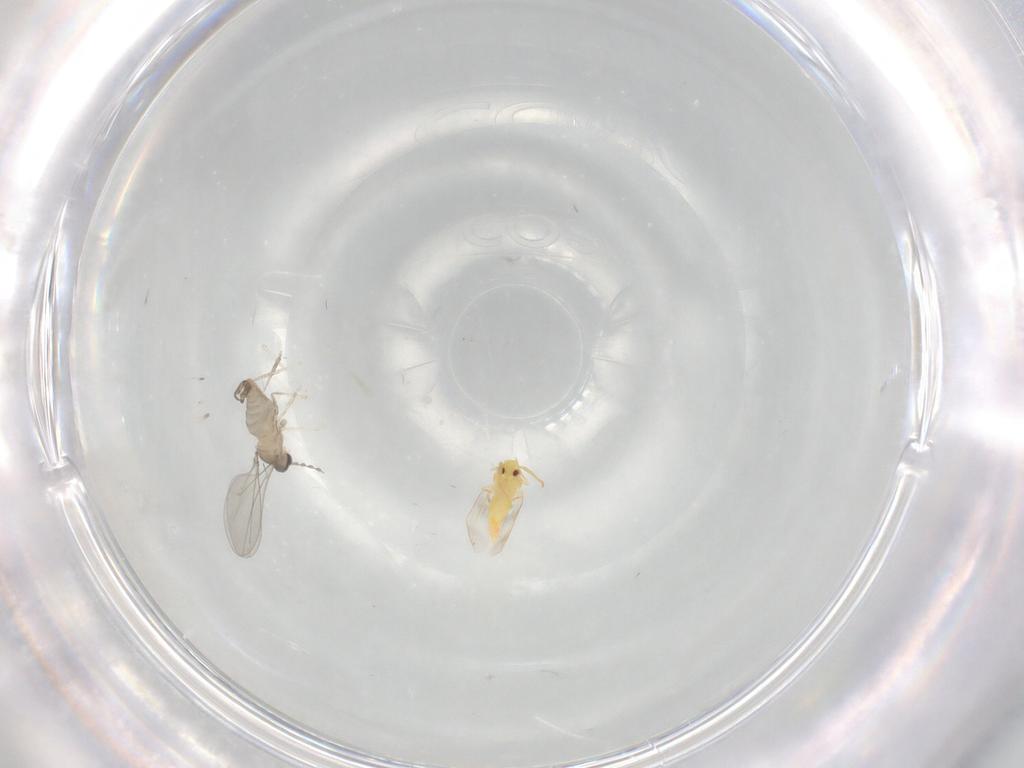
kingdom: Animalia
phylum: Arthropoda
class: Insecta
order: Diptera
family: Cecidomyiidae
